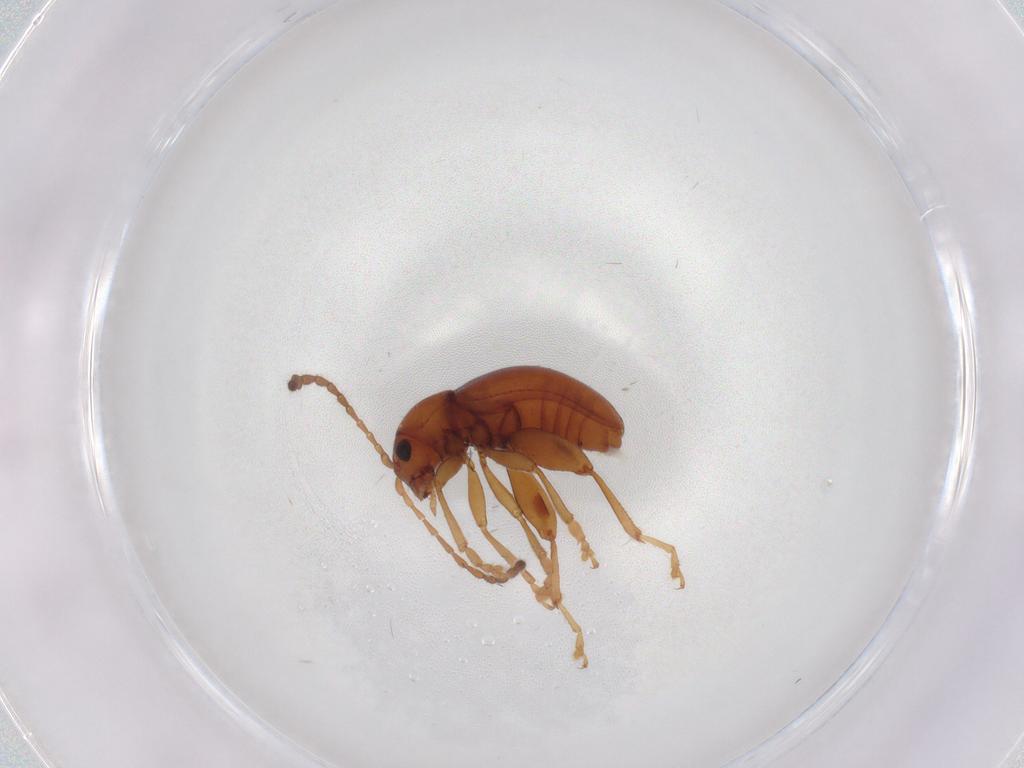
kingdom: Animalia
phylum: Arthropoda
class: Insecta
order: Coleoptera
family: Chrysomelidae
